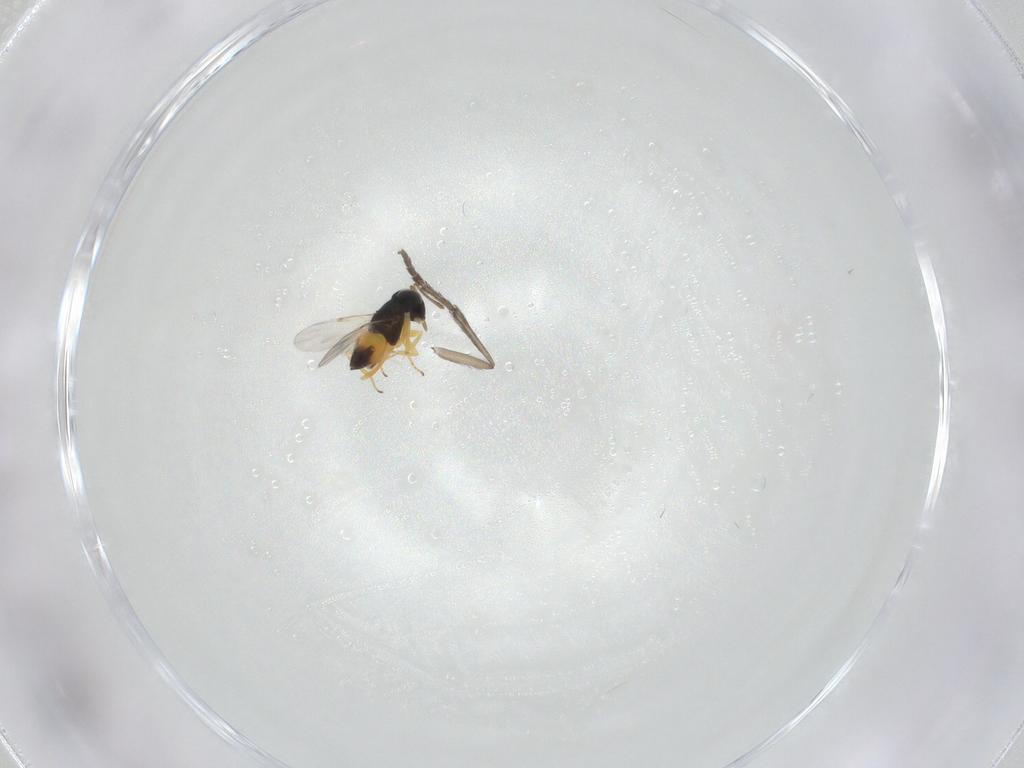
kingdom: Animalia
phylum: Arthropoda
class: Insecta
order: Hymenoptera
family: Encyrtidae
